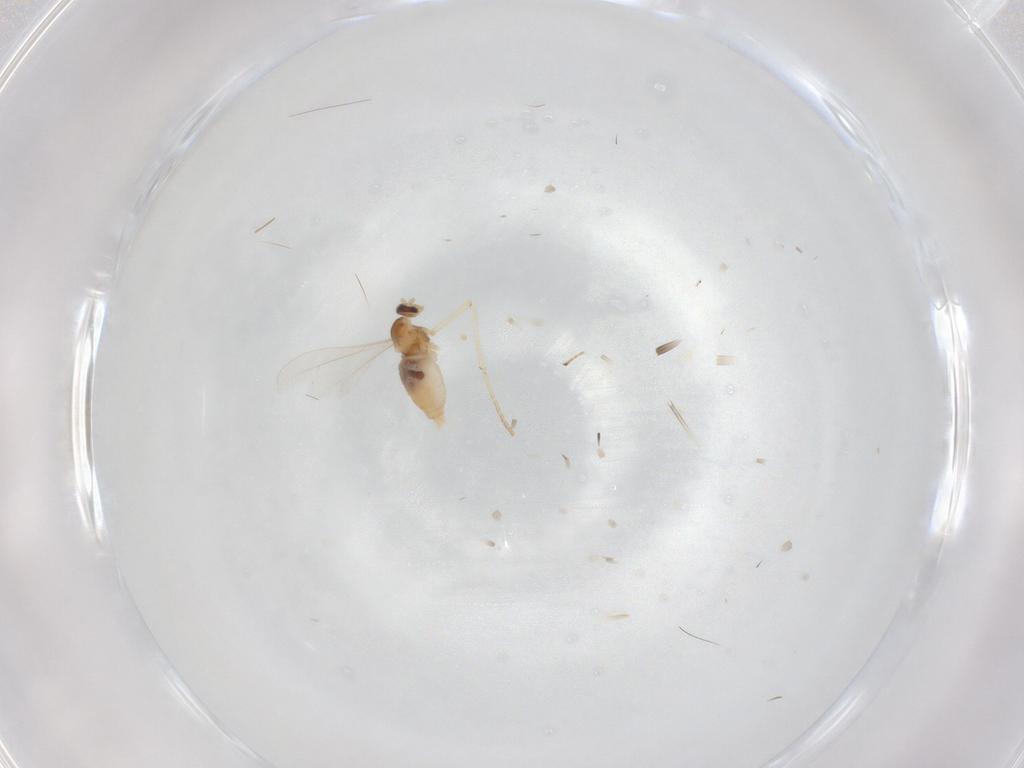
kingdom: Animalia
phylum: Arthropoda
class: Insecta
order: Diptera
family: Cecidomyiidae
